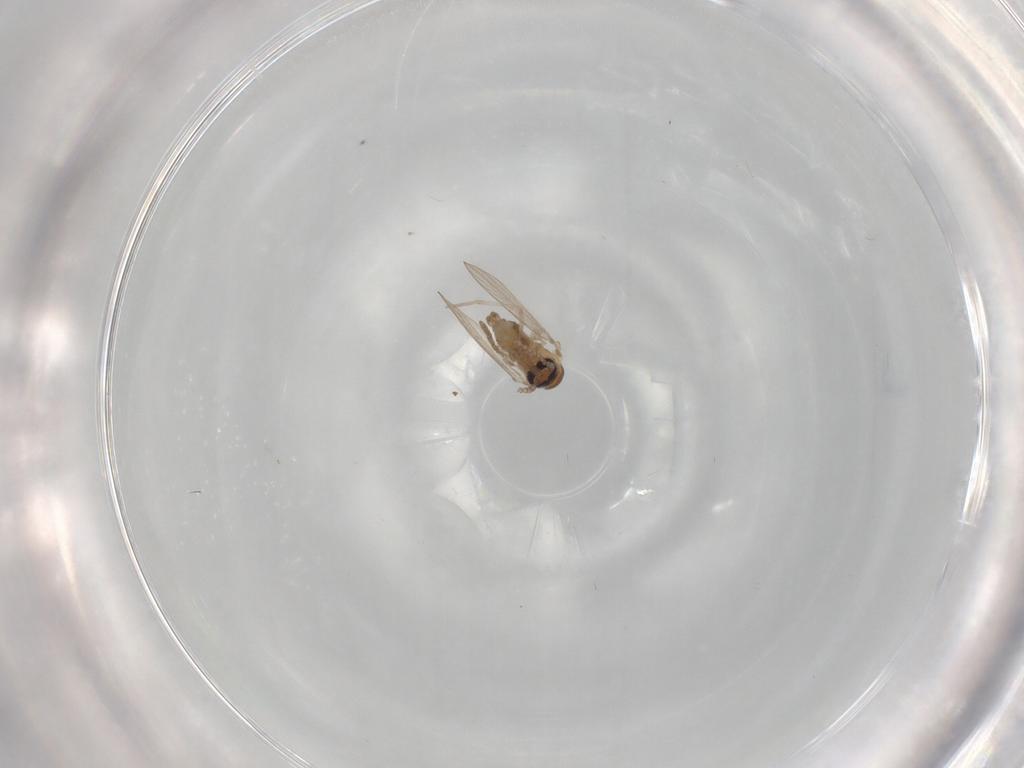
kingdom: Animalia
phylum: Arthropoda
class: Insecta
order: Diptera
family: Psychodidae
